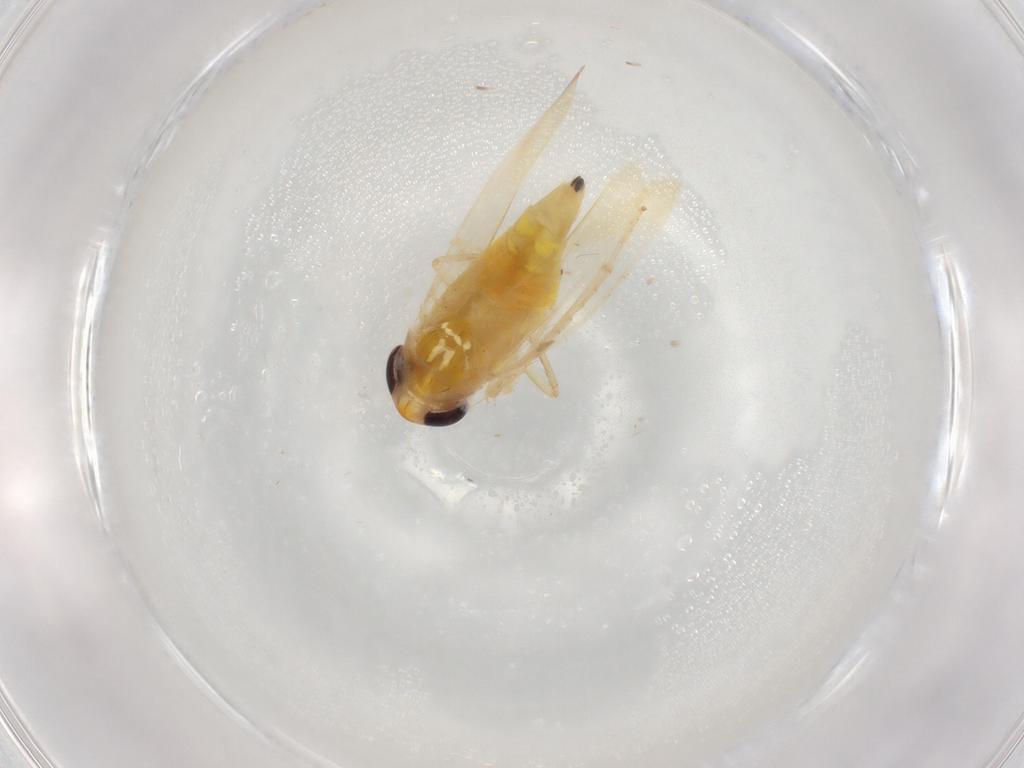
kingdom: Animalia
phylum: Arthropoda
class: Insecta
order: Hemiptera
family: Cicadellidae
